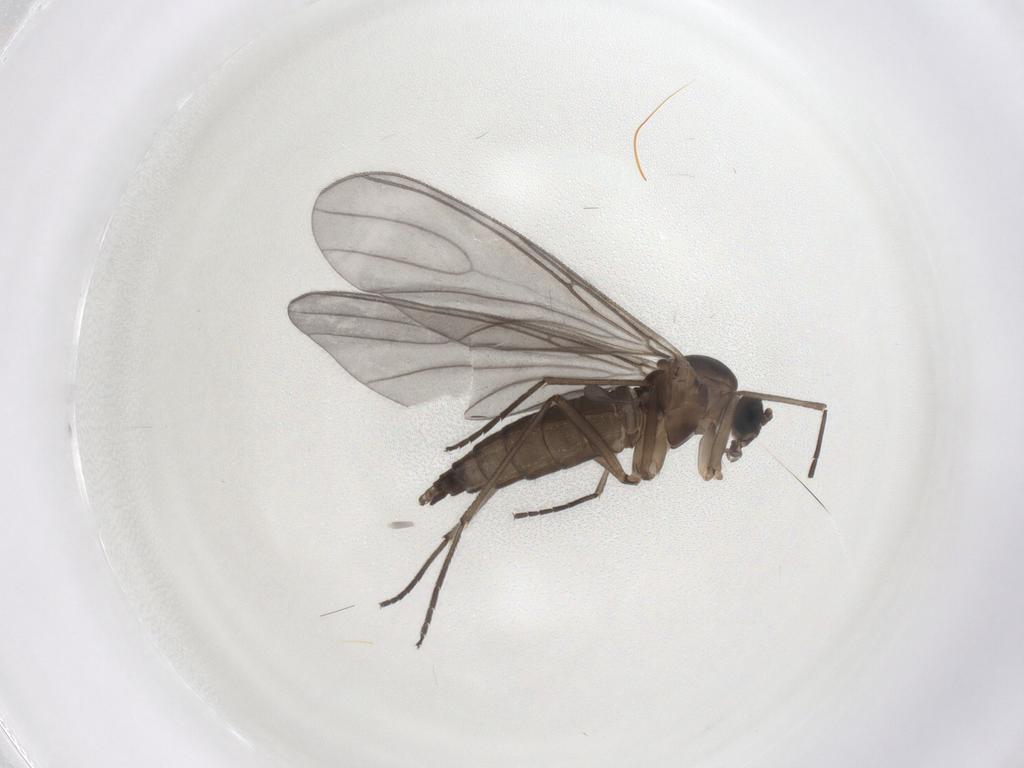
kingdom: Animalia
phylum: Arthropoda
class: Insecta
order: Diptera
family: Sciaridae
